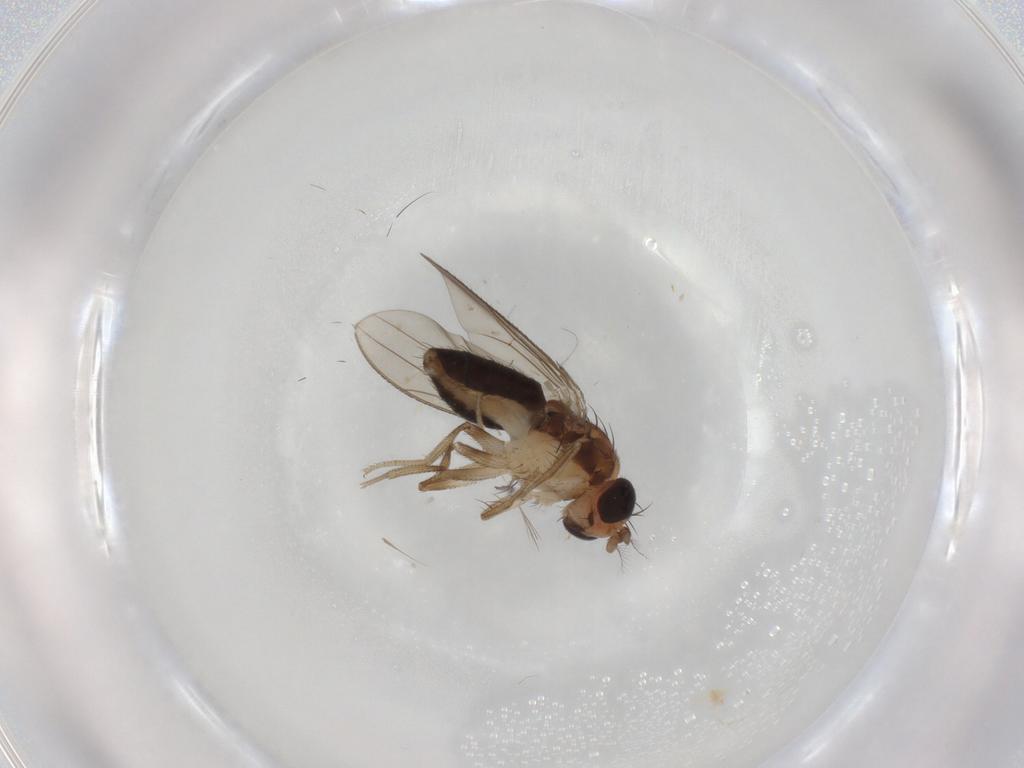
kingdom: Animalia
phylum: Arthropoda
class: Insecta
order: Diptera
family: Drosophilidae
